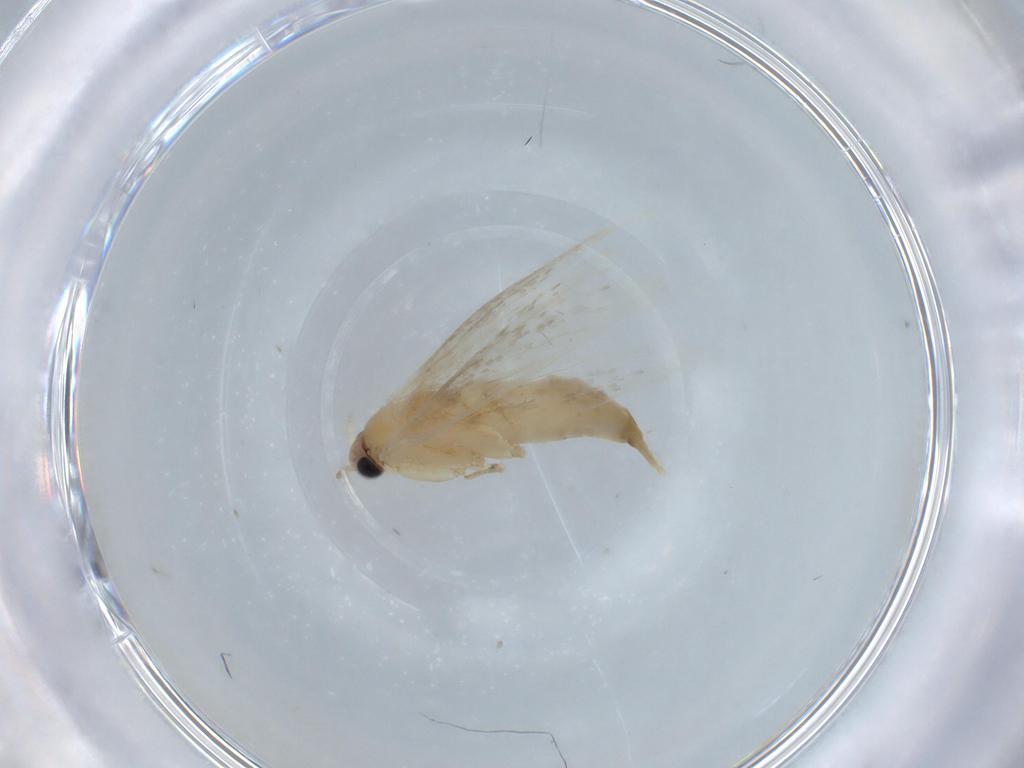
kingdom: Animalia
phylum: Arthropoda
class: Insecta
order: Lepidoptera
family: Tineidae
